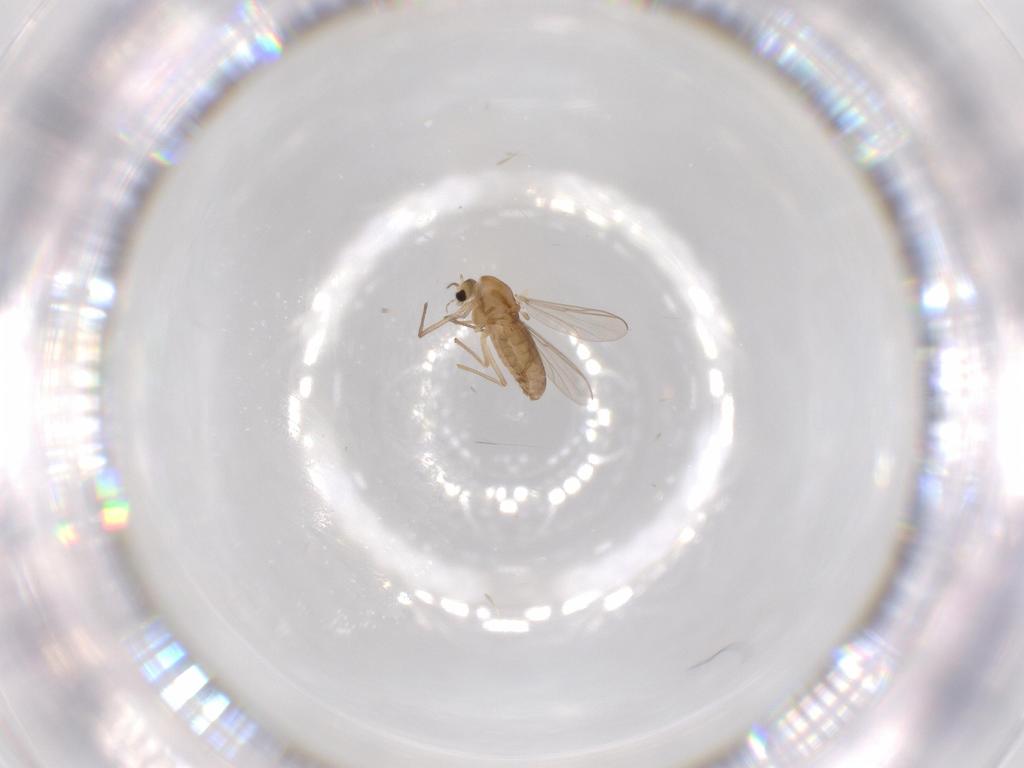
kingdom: Animalia
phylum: Arthropoda
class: Insecta
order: Diptera
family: Chironomidae
